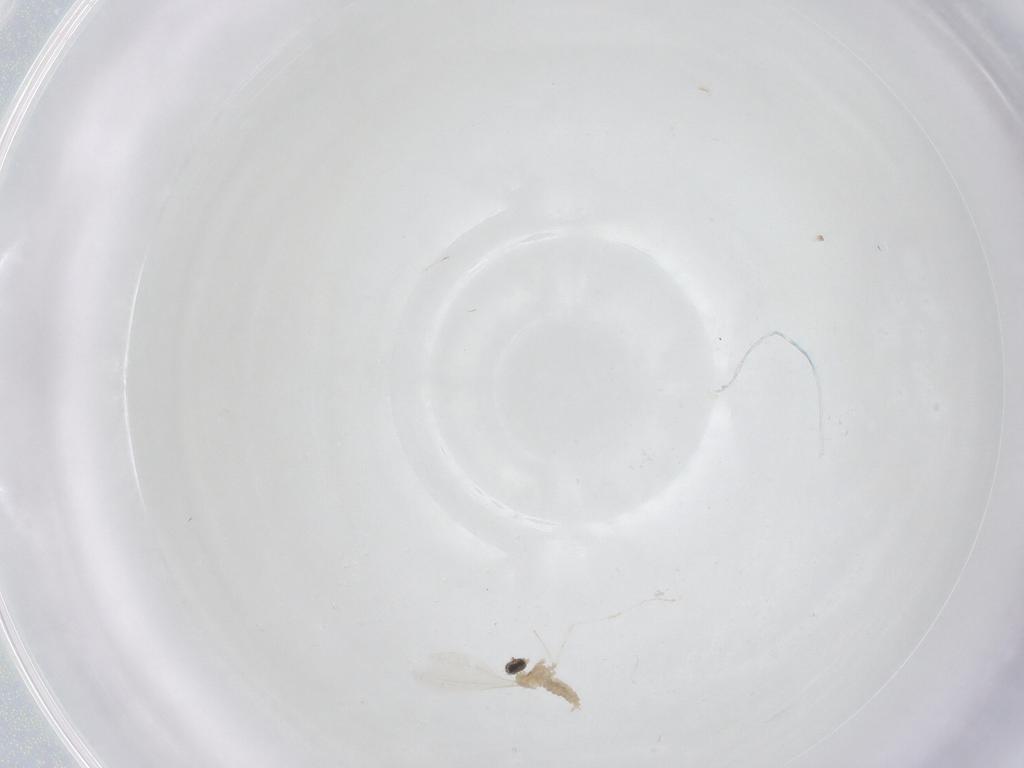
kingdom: Animalia
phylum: Arthropoda
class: Insecta
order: Diptera
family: Cecidomyiidae
